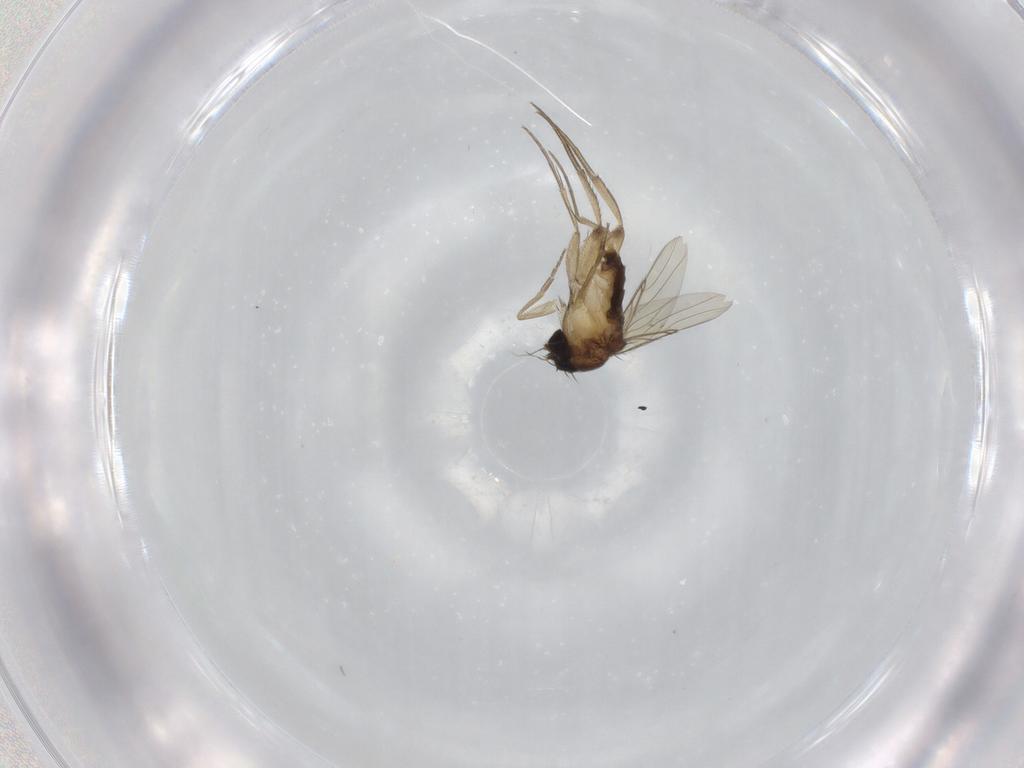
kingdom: Animalia
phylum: Arthropoda
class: Insecta
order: Diptera
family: Phoridae
